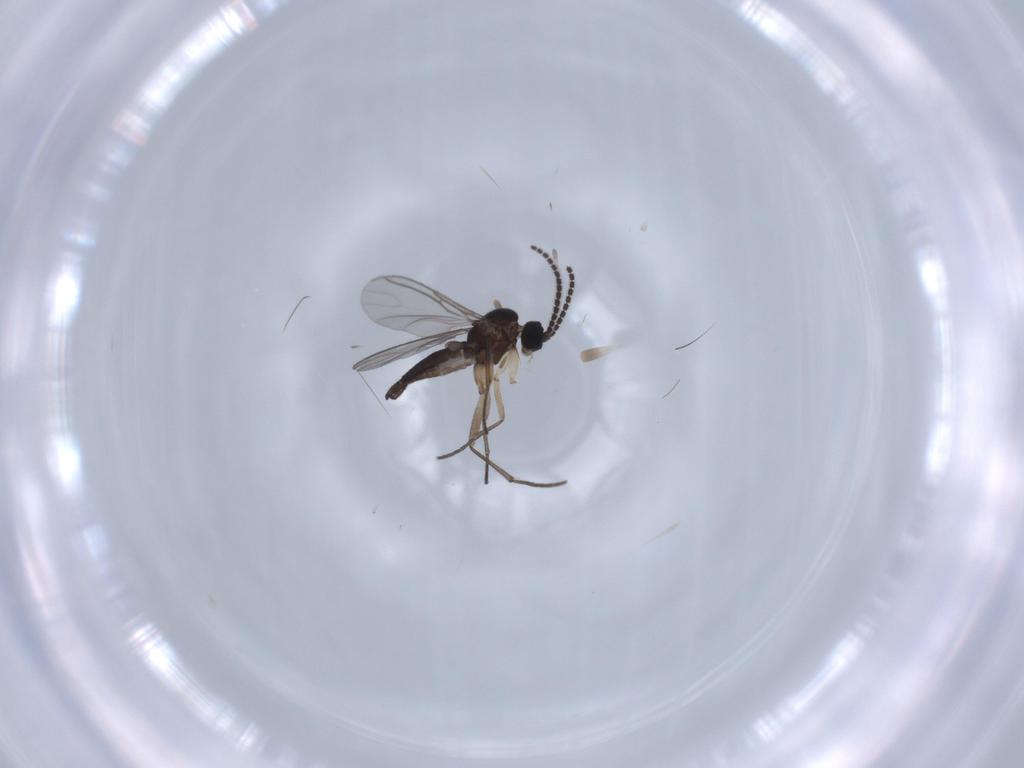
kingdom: Animalia
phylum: Arthropoda
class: Insecta
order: Diptera
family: Sciaridae
